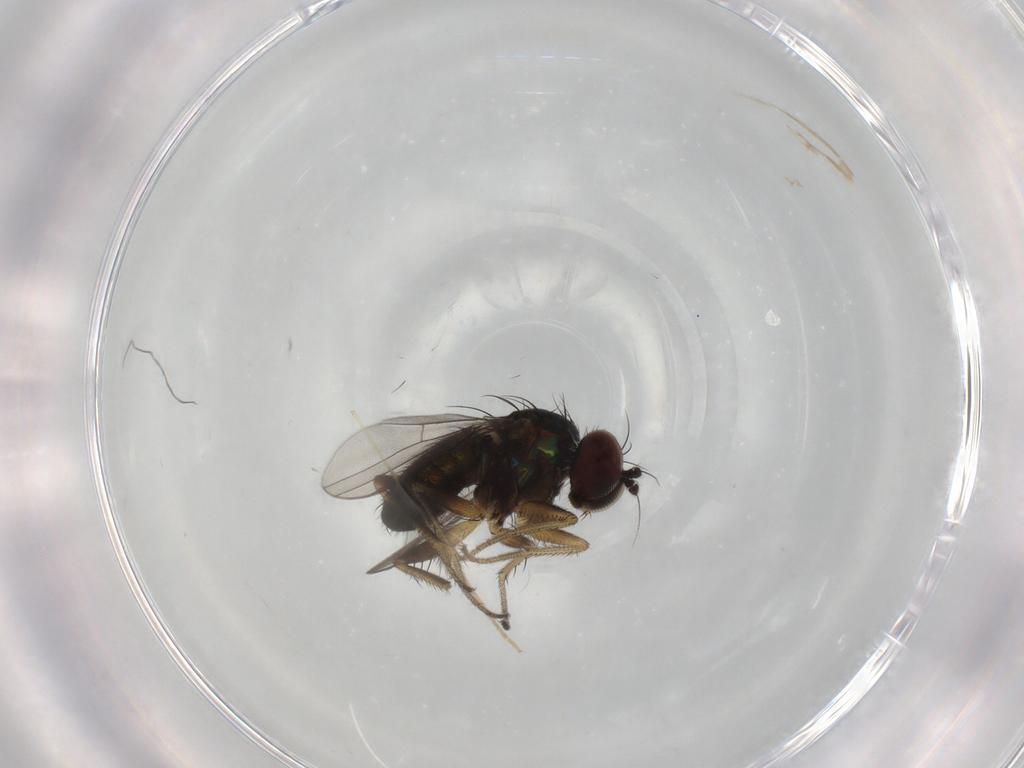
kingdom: Animalia
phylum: Arthropoda
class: Insecta
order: Diptera
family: Dolichopodidae
